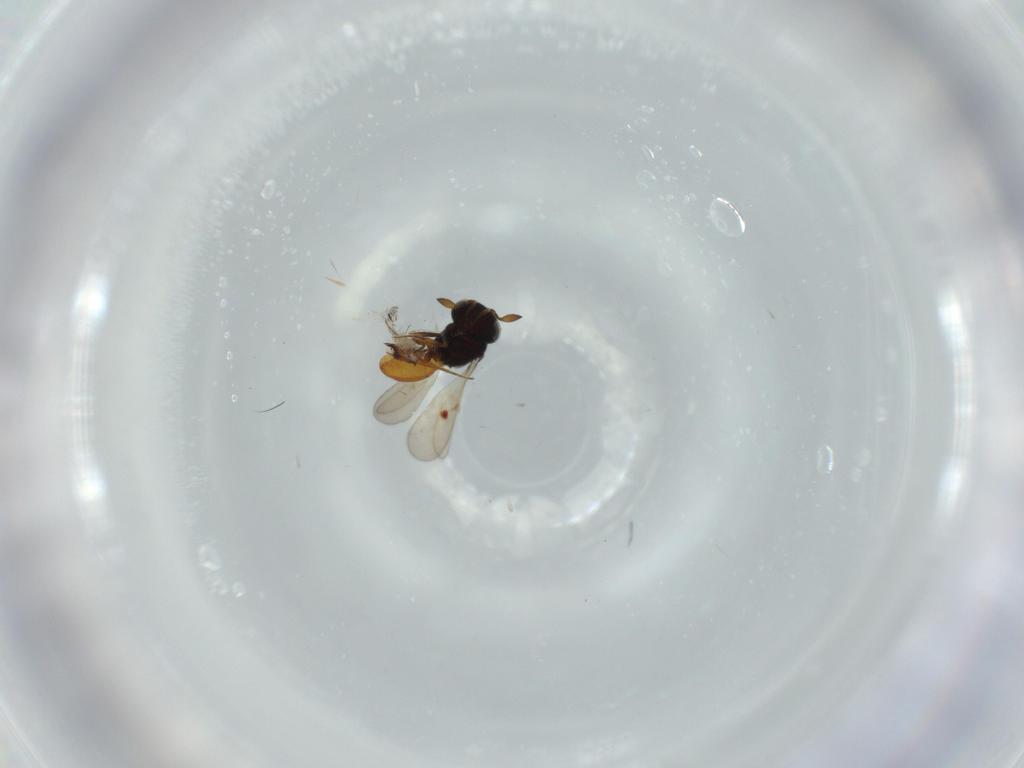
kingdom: Animalia
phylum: Arthropoda
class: Insecta
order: Hymenoptera
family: Scelionidae
